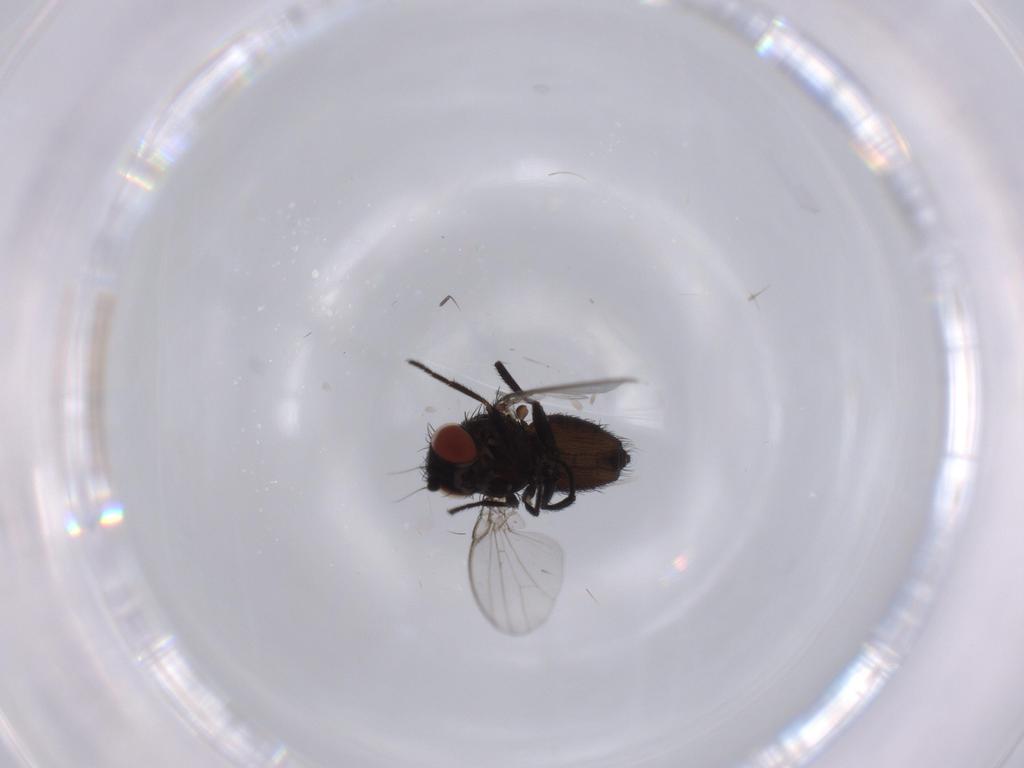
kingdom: Animalia
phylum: Arthropoda
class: Insecta
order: Diptera
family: Milichiidae
